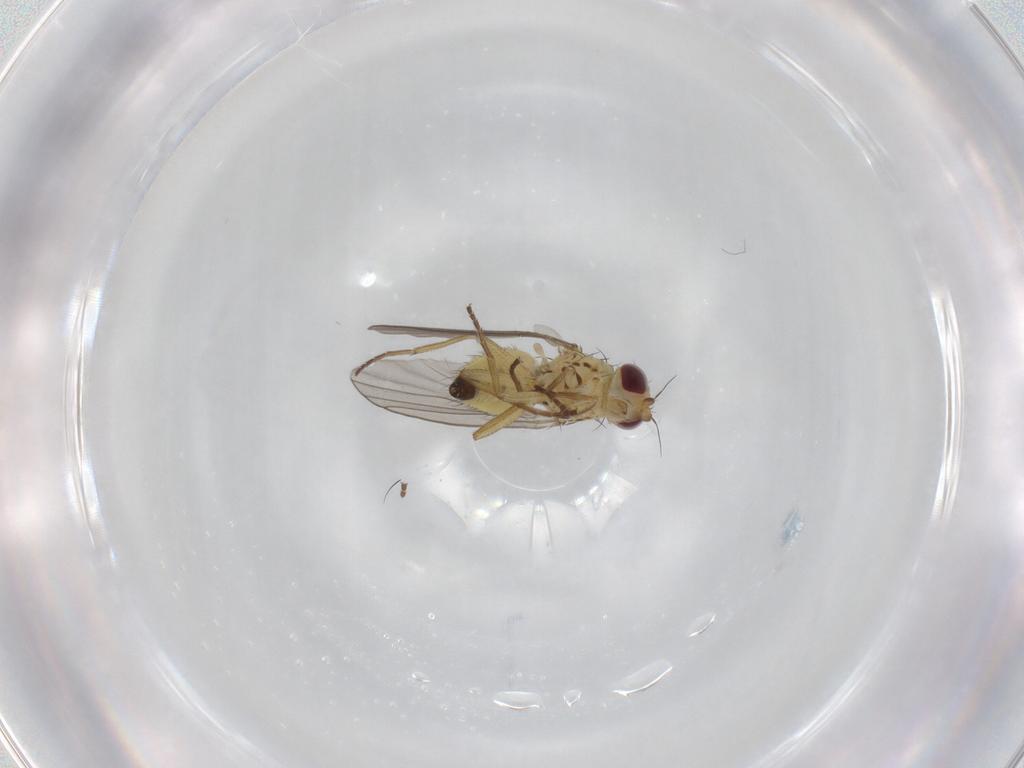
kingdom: Animalia
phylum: Arthropoda
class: Insecta
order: Diptera
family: Agromyzidae
